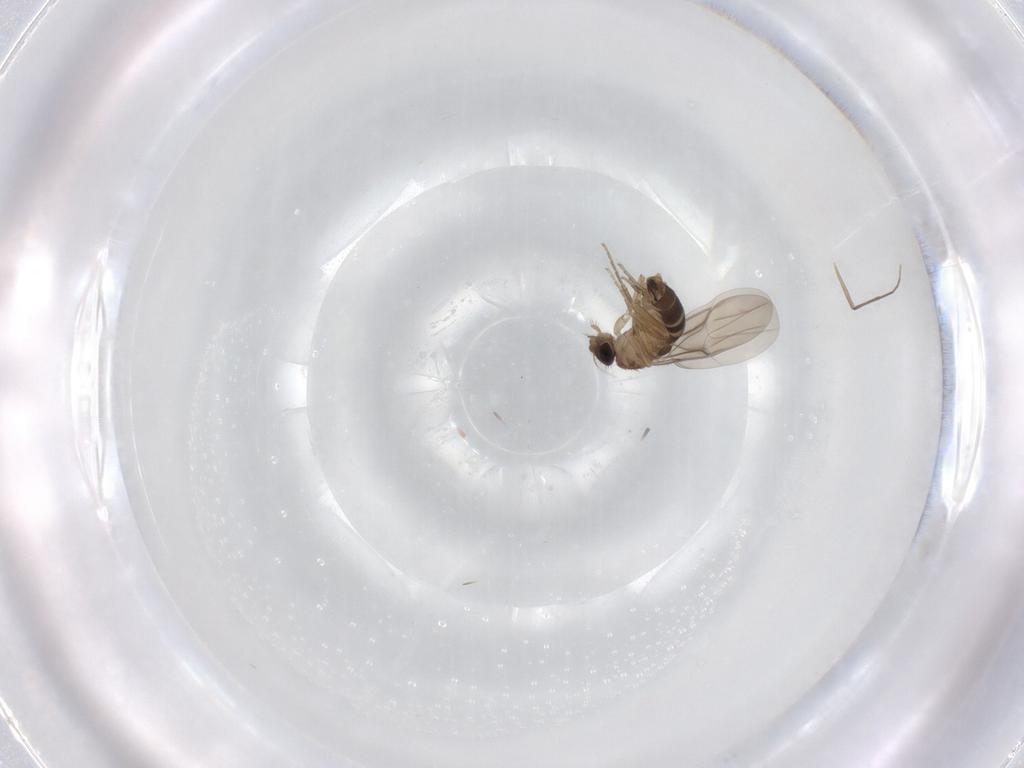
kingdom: Animalia
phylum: Arthropoda
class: Insecta
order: Diptera
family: Phoridae
